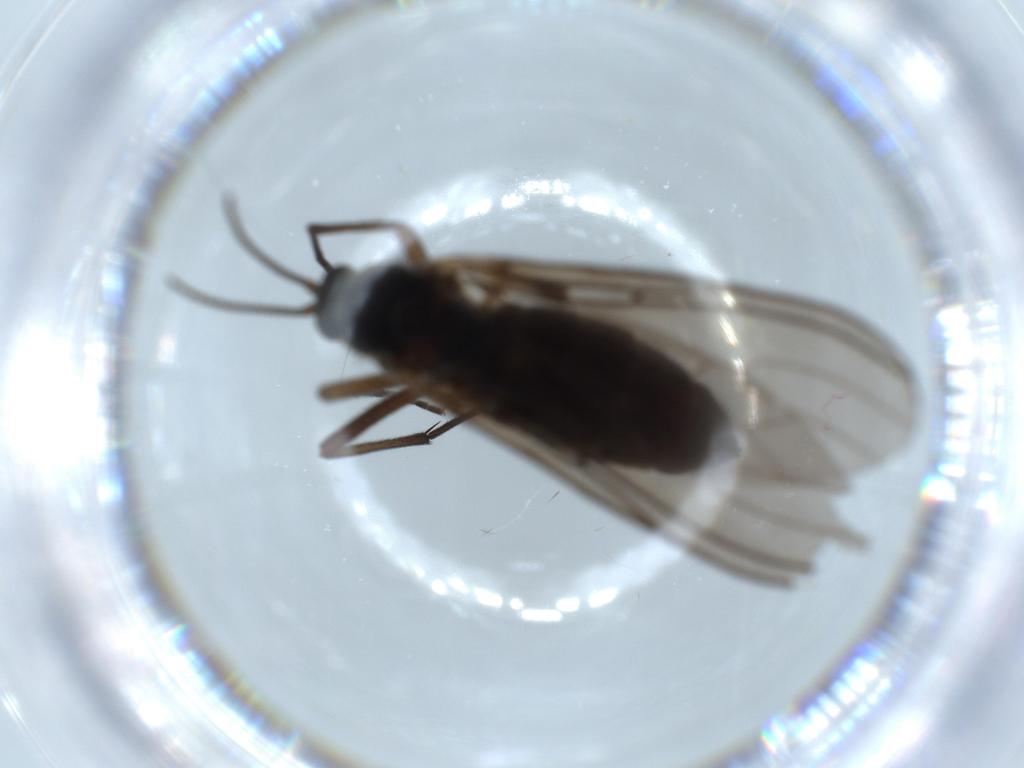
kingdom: Animalia
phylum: Arthropoda
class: Insecta
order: Diptera
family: Sciaridae
